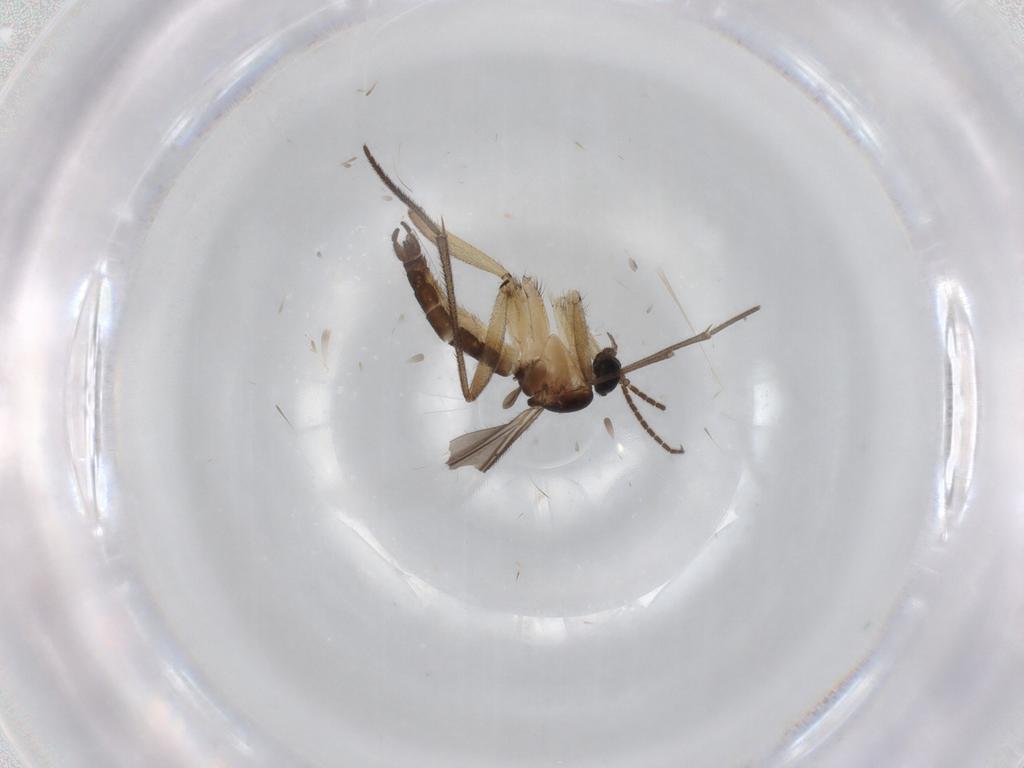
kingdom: Animalia
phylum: Arthropoda
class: Insecta
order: Diptera
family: Sciaridae
